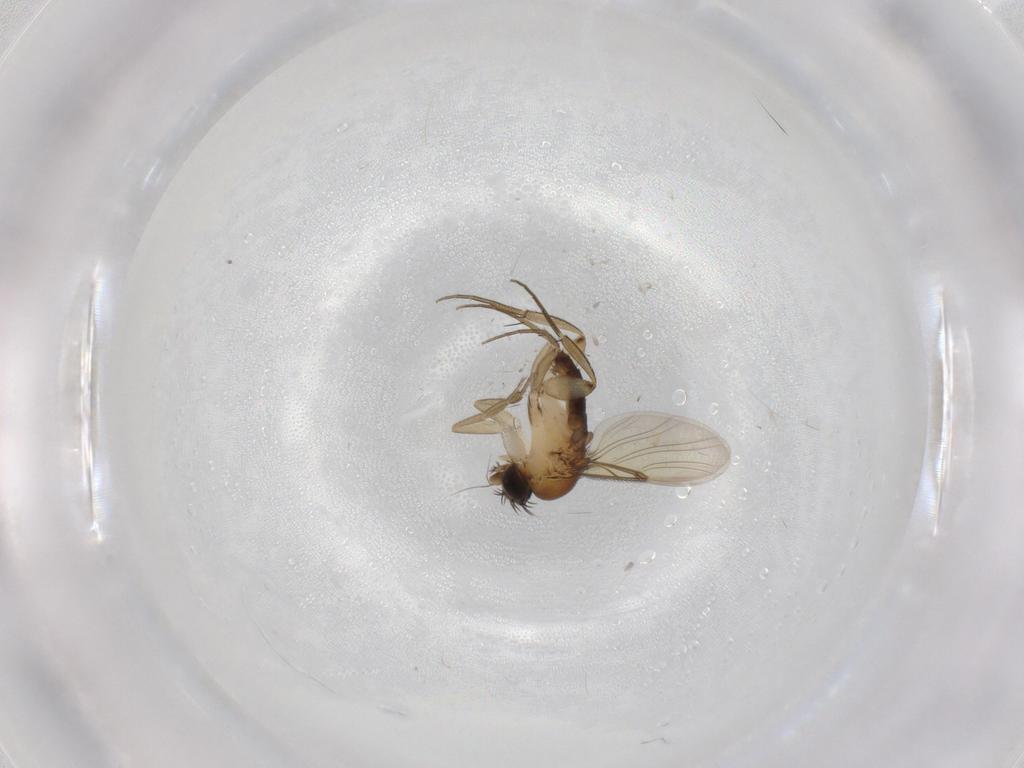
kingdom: Animalia
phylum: Arthropoda
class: Insecta
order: Diptera
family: Phoridae
